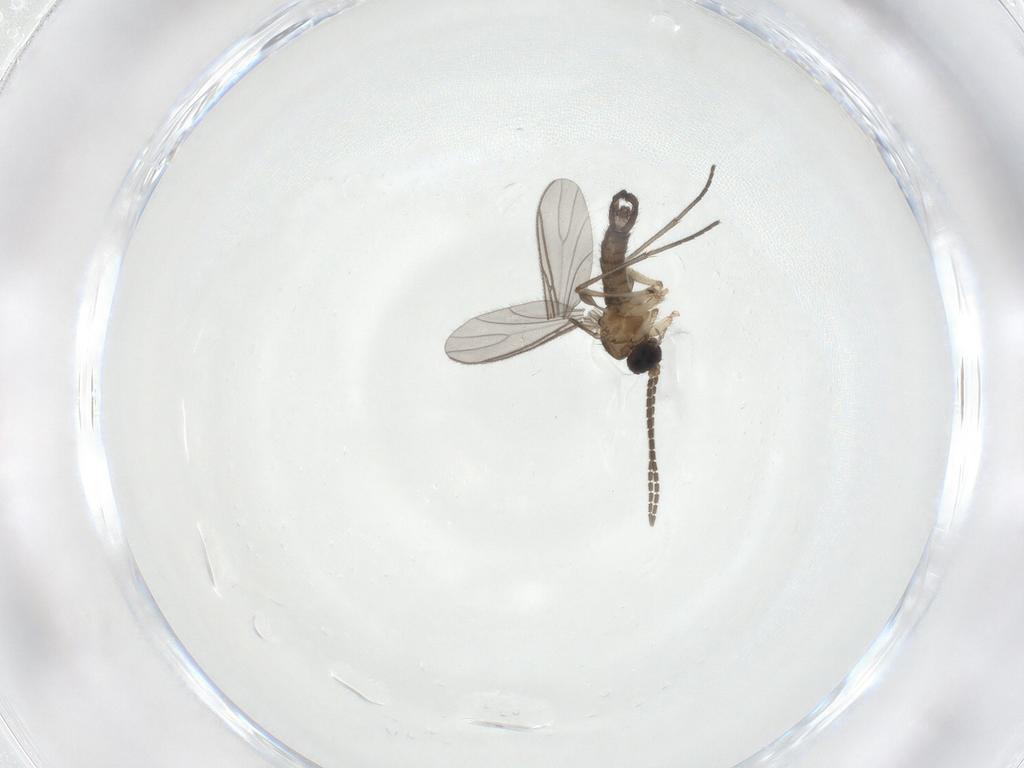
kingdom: Animalia
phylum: Arthropoda
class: Insecta
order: Diptera
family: Sciaridae
